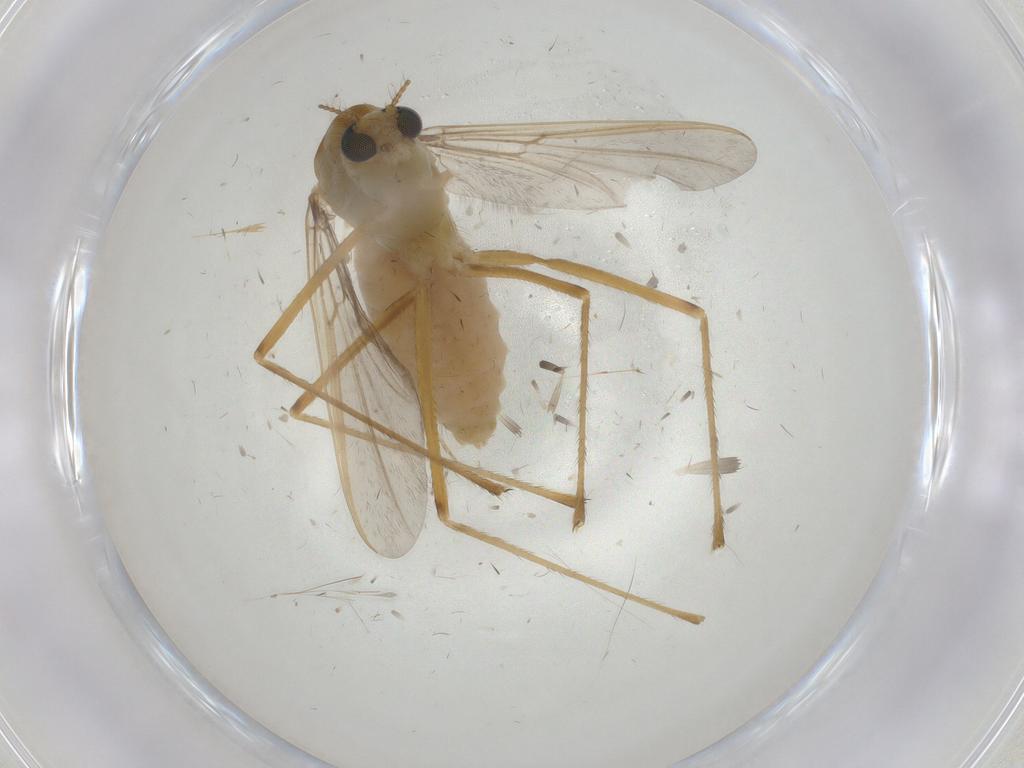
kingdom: Animalia
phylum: Arthropoda
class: Insecta
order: Diptera
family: Chironomidae
